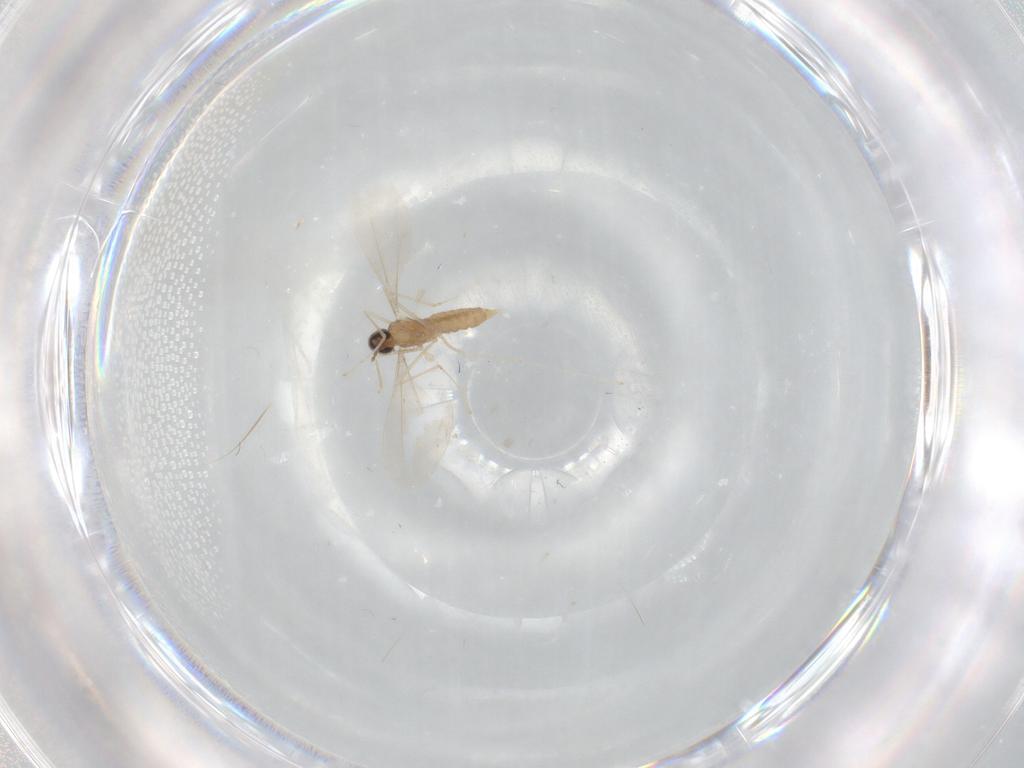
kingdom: Animalia
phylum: Arthropoda
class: Insecta
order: Diptera
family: Cecidomyiidae
